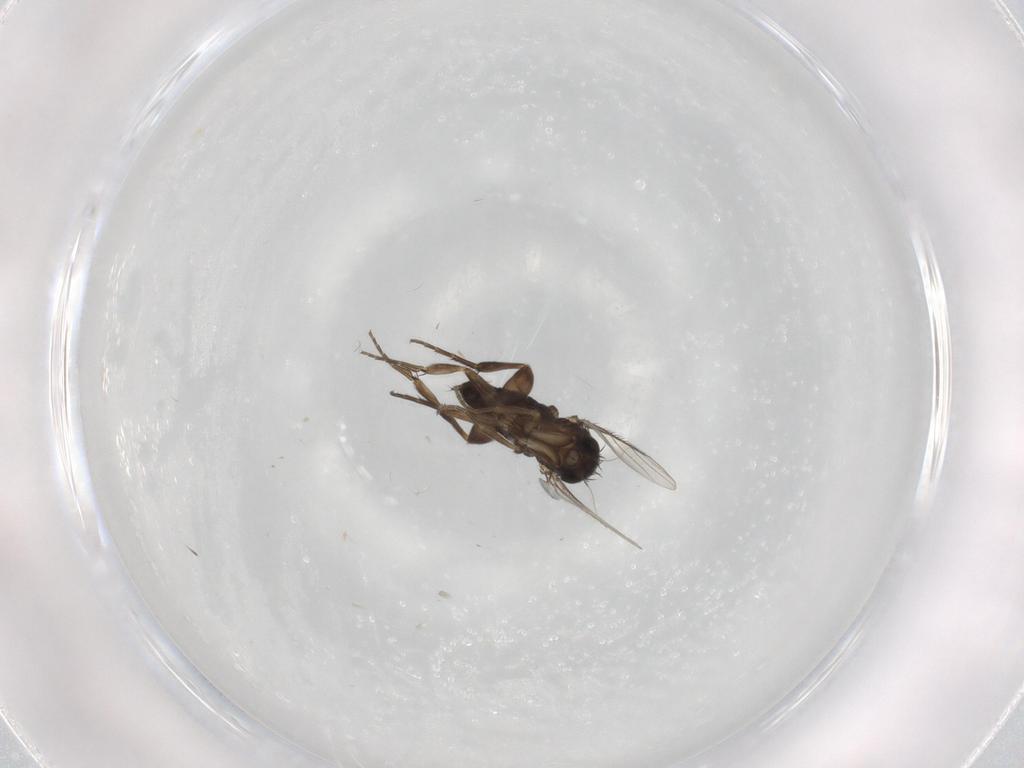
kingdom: Animalia
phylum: Arthropoda
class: Insecta
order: Diptera
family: Phoridae
